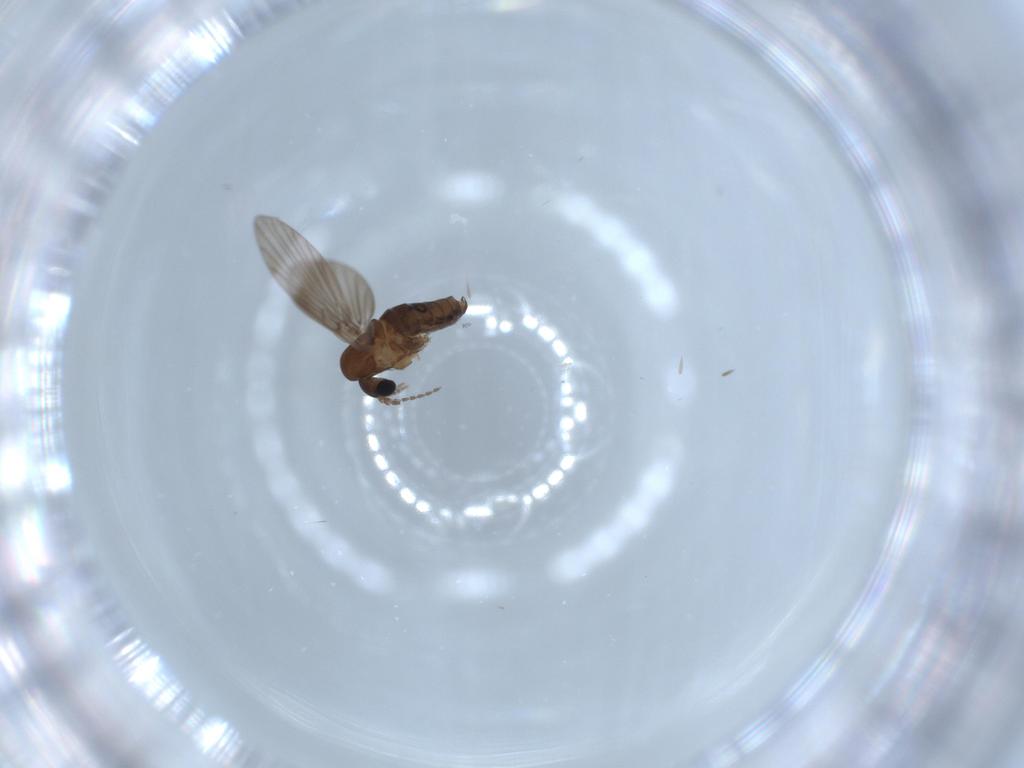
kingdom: Animalia
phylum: Arthropoda
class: Insecta
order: Diptera
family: Psychodidae
